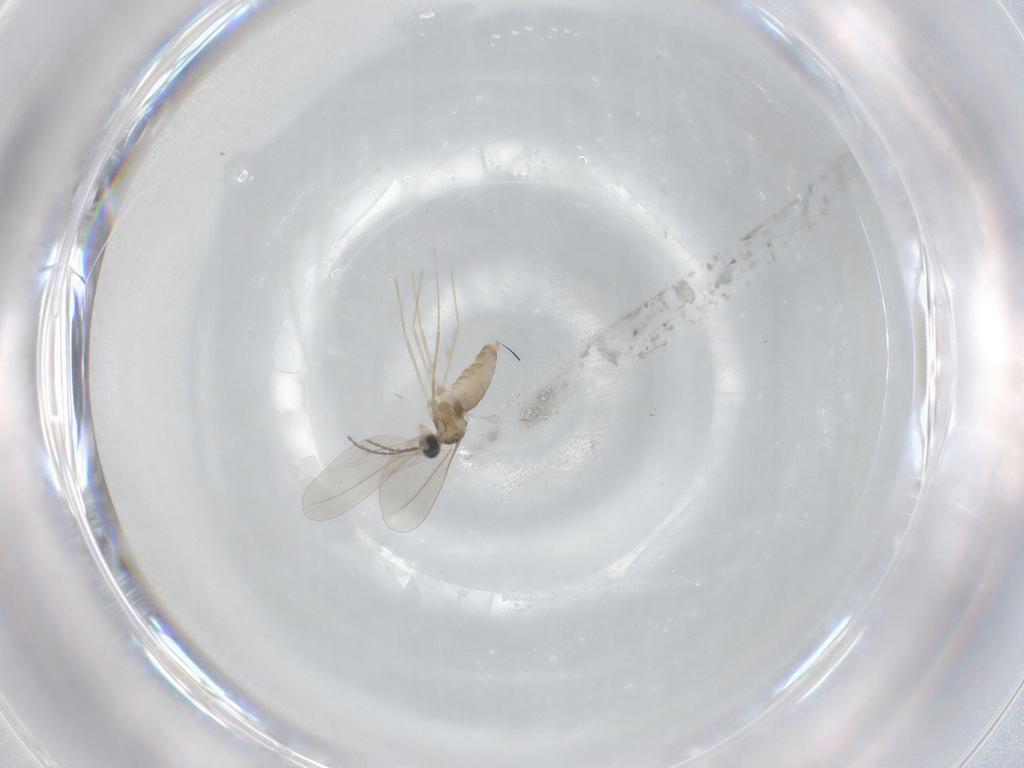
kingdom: Animalia
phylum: Arthropoda
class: Insecta
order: Diptera
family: Cecidomyiidae
